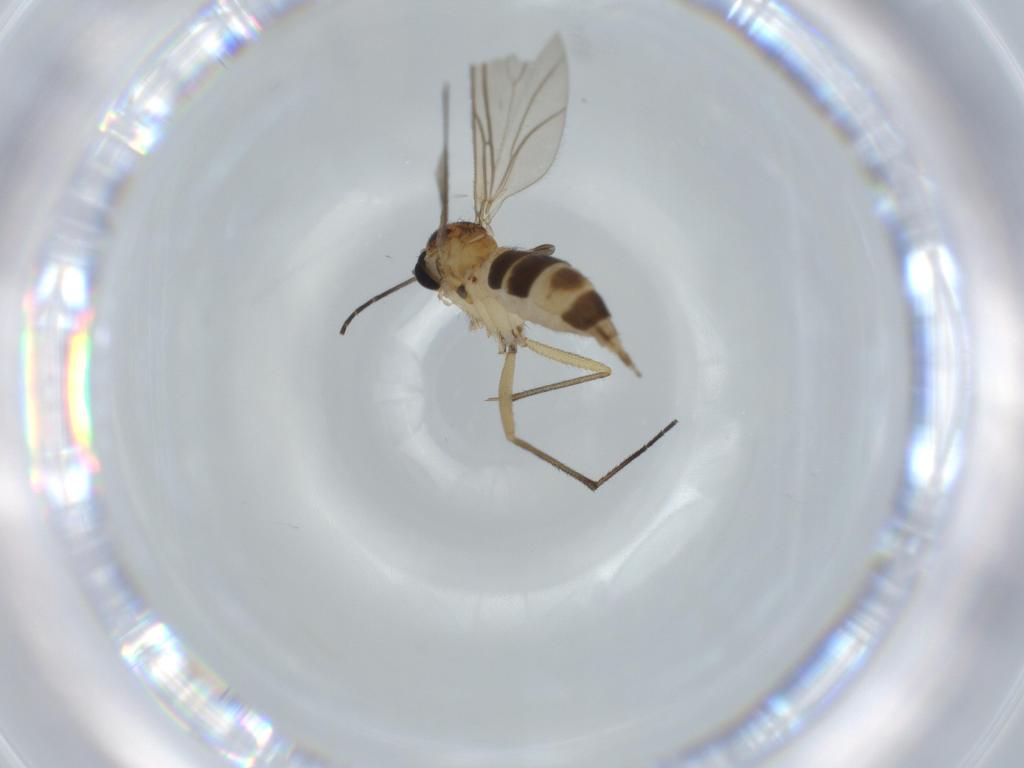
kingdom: Animalia
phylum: Arthropoda
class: Insecta
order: Diptera
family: Sciaridae
